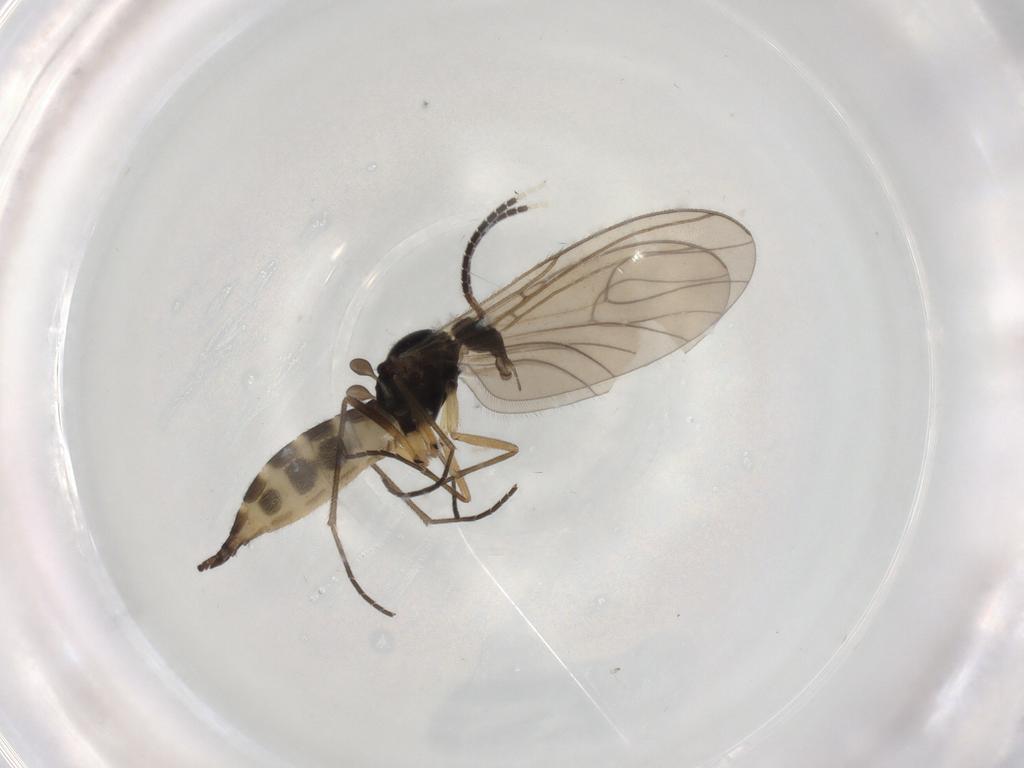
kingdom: Animalia
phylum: Arthropoda
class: Insecta
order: Diptera
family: Sciaridae
